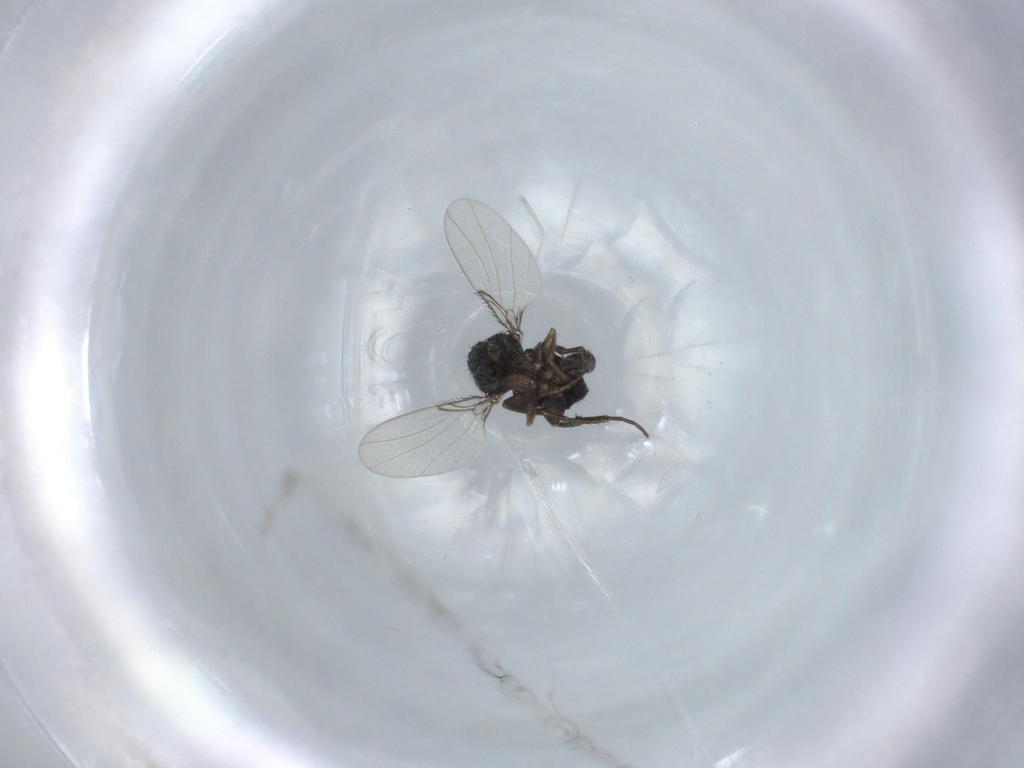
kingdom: Animalia
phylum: Arthropoda
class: Insecta
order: Diptera
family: Phoridae
